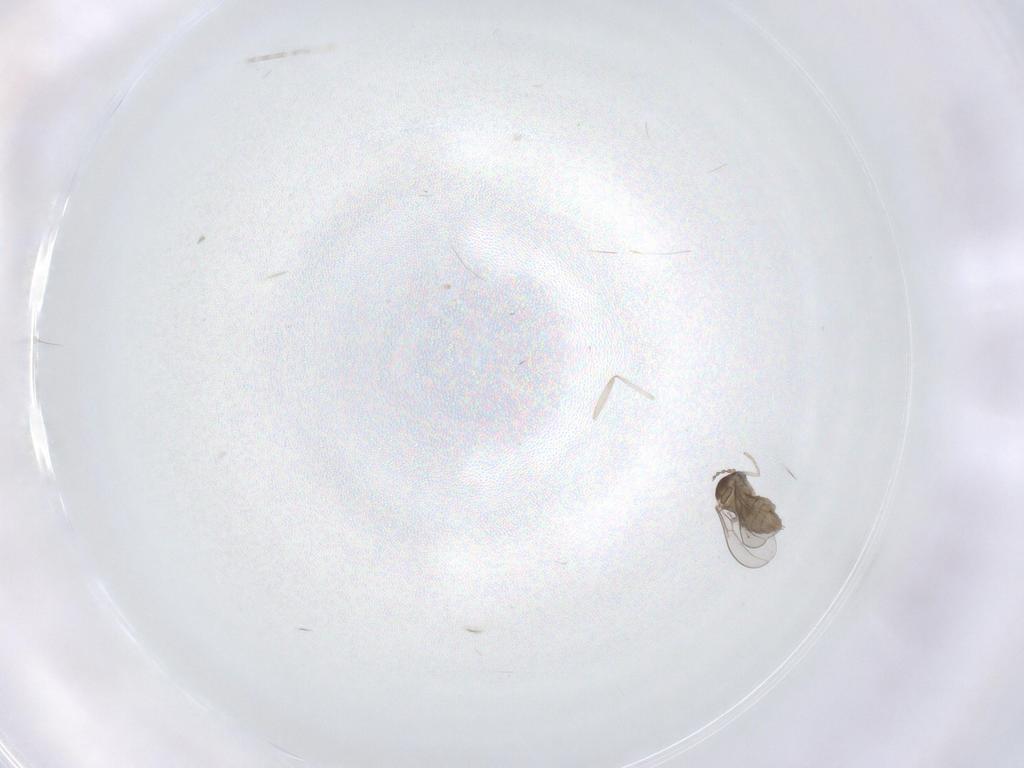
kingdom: Animalia
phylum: Arthropoda
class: Insecta
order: Diptera
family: Cecidomyiidae
